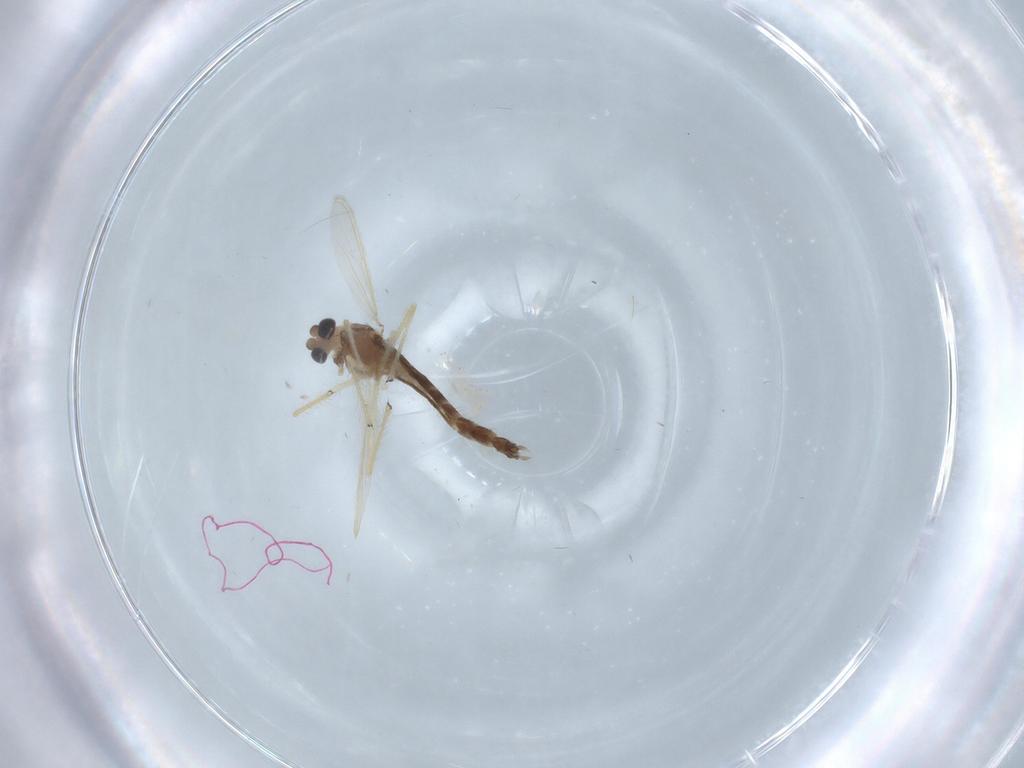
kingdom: Animalia
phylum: Arthropoda
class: Insecta
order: Diptera
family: Chironomidae
